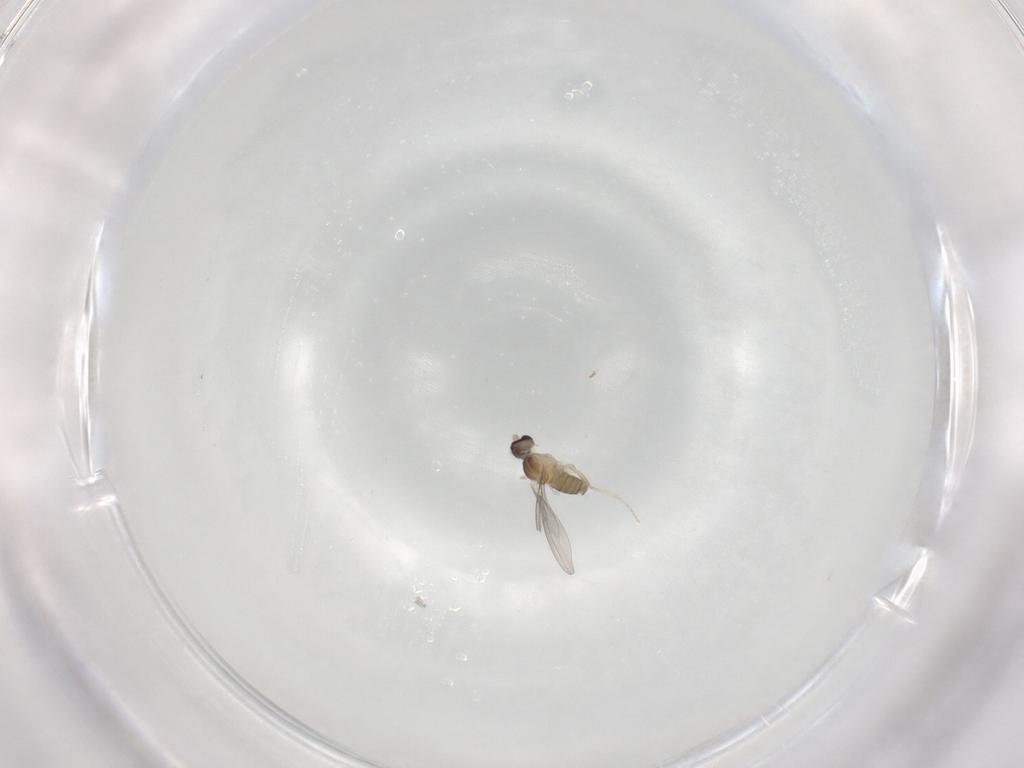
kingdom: Animalia
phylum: Arthropoda
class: Insecta
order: Diptera
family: Cecidomyiidae
